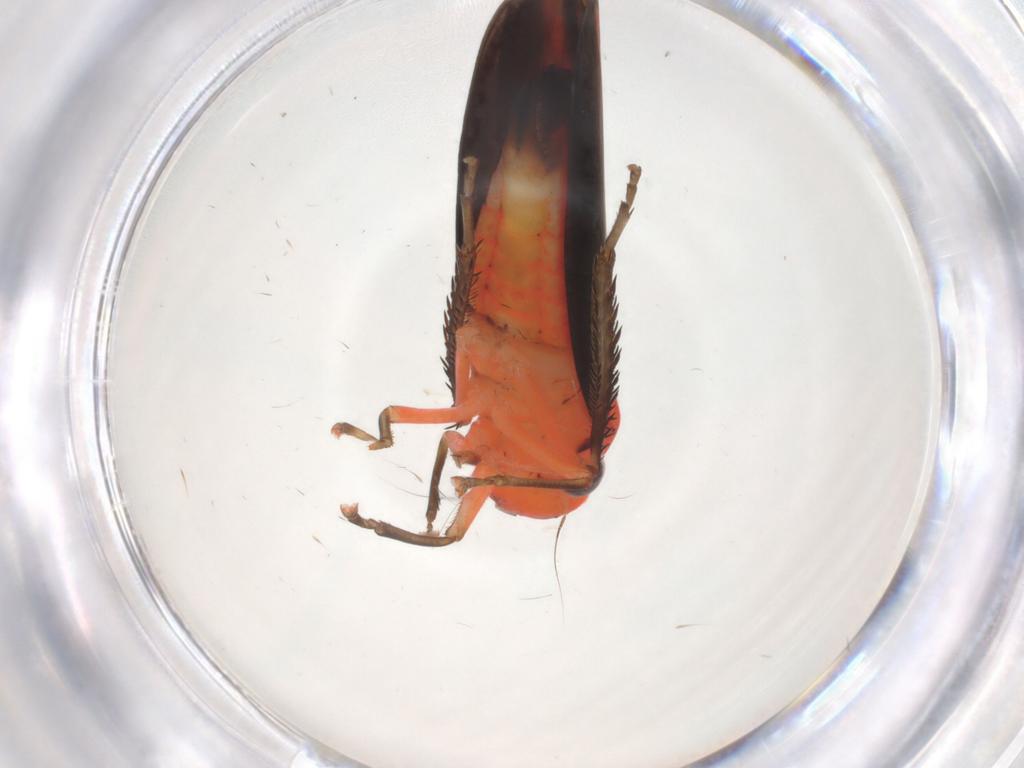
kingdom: Animalia
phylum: Arthropoda
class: Insecta
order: Hemiptera
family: Cicadellidae
